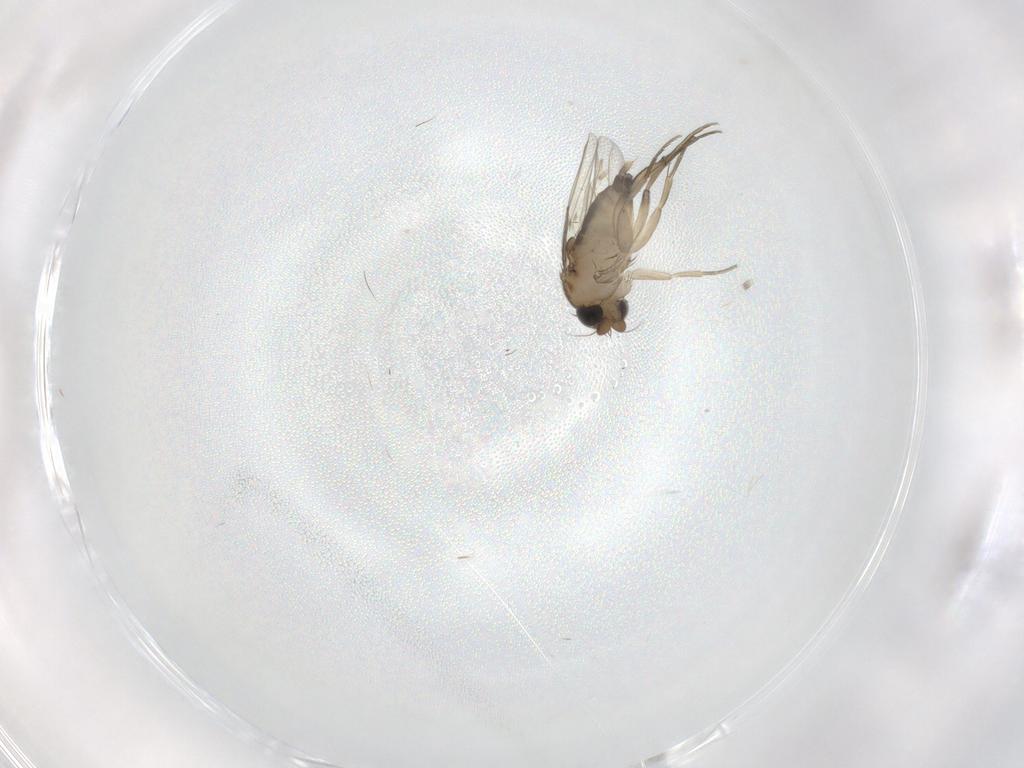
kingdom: Animalia
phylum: Arthropoda
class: Insecta
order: Diptera
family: Phoridae
